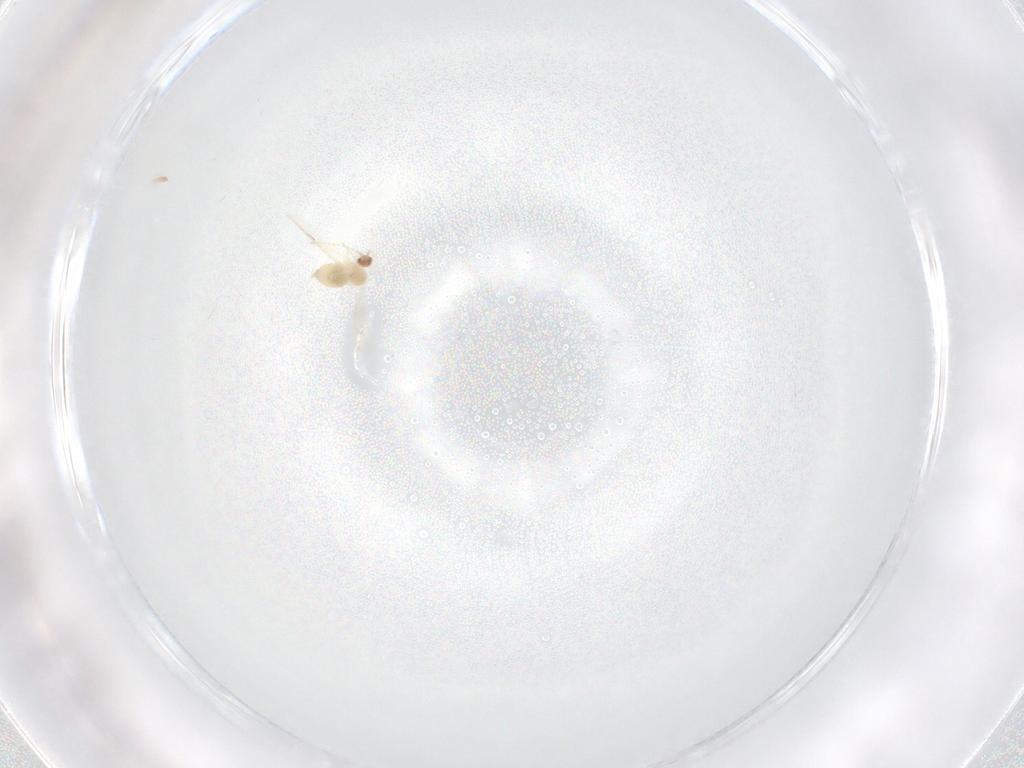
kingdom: Animalia
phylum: Arthropoda
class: Insecta
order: Diptera
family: Cecidomyiidae
